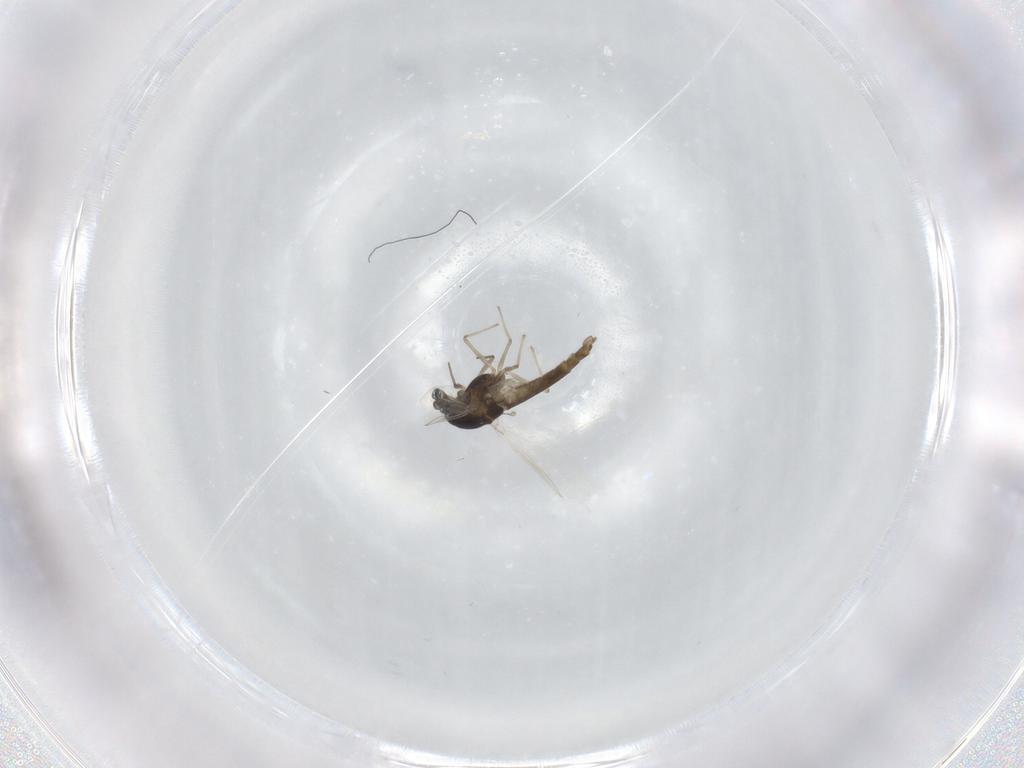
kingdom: Animalia
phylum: Arthropoda
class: Insecta
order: Diptera
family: Chironomidae
